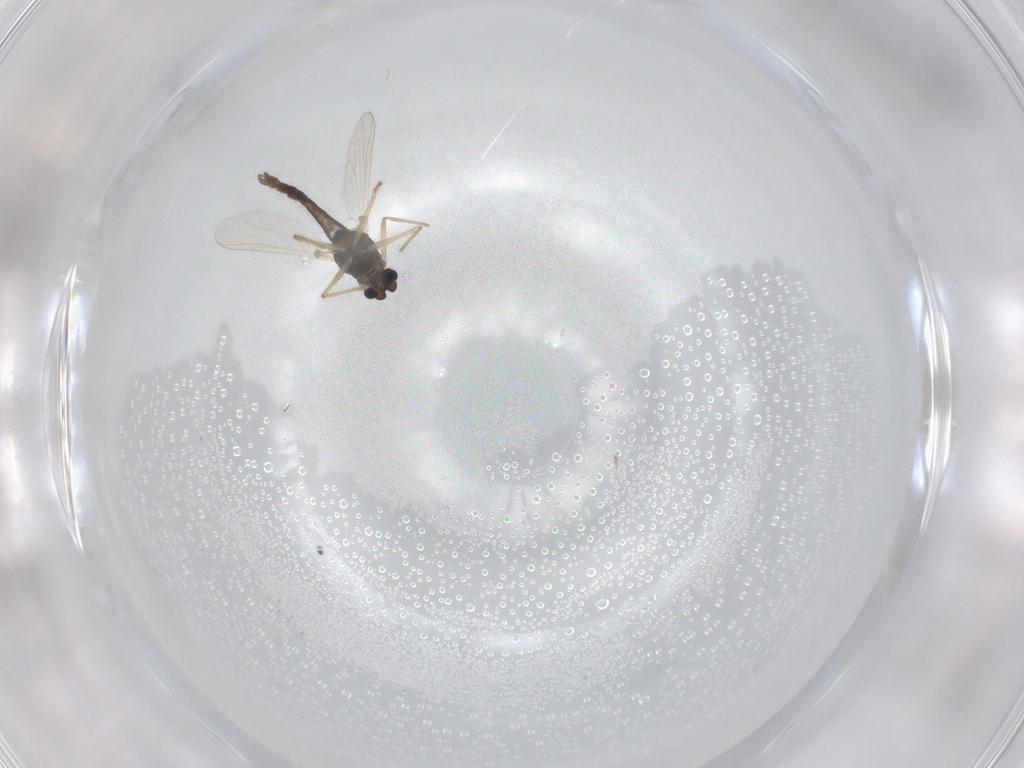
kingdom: Animalia
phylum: Arthropoda
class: Insecta
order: Diptera
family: Chironomidae
